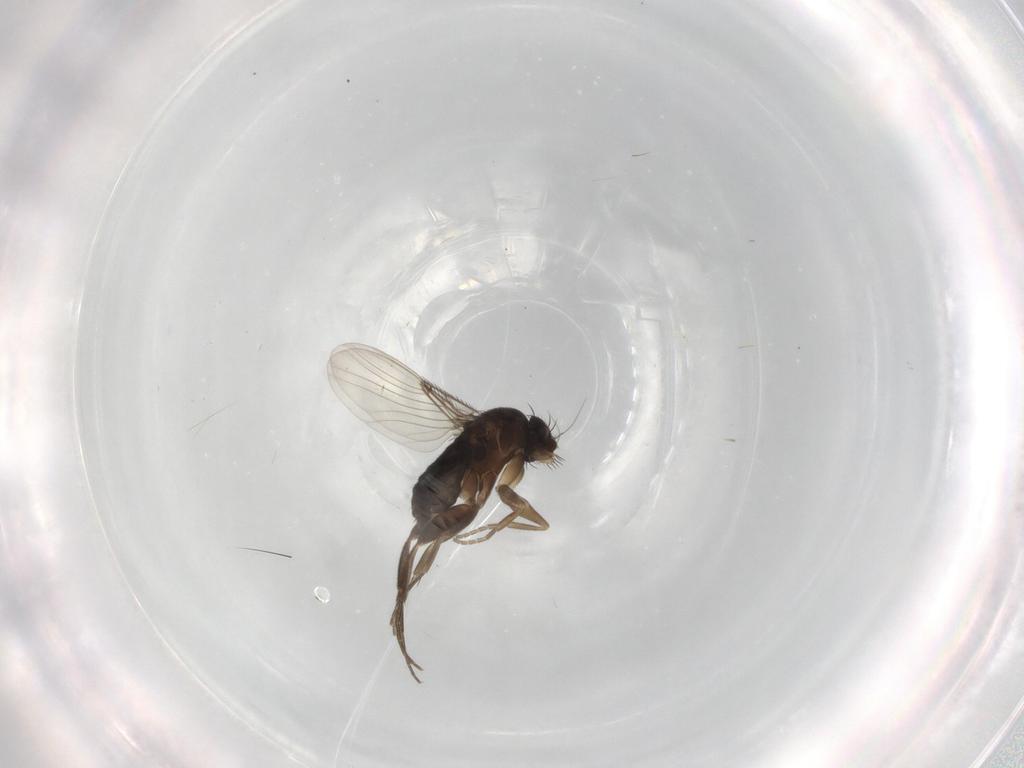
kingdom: Animalia
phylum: Arthropoda
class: Insecta
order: Diptera
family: Phoridae
